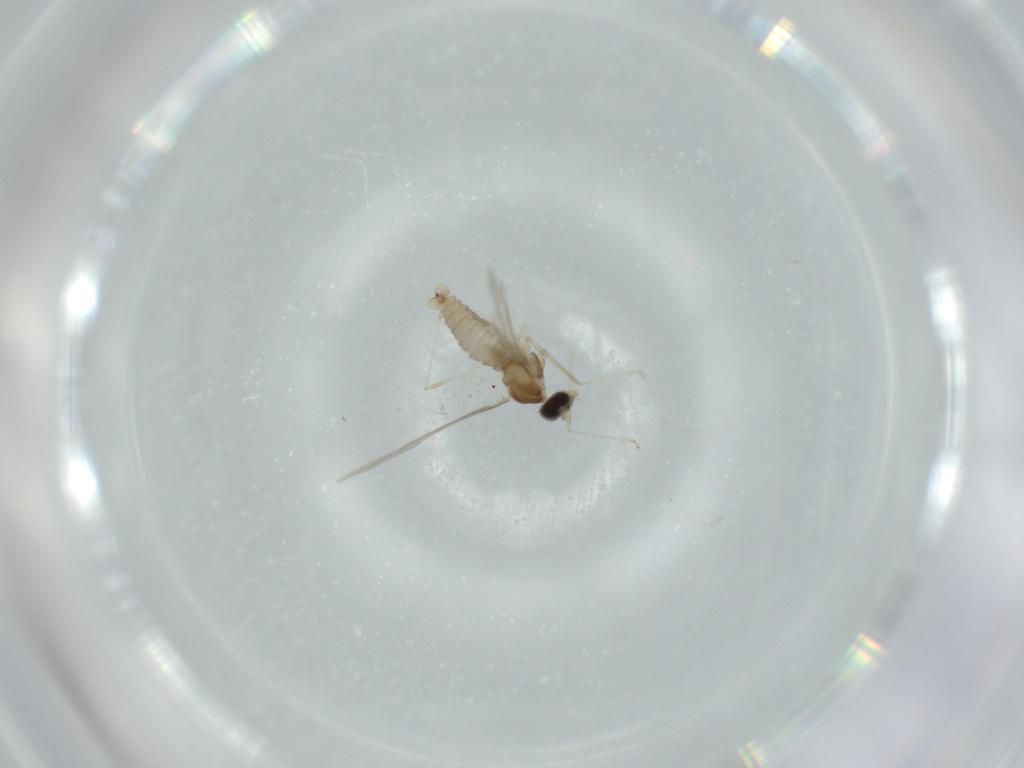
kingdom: Animalia
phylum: Arthropoda
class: Insecta
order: Diptera
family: Cecidomyiidae
